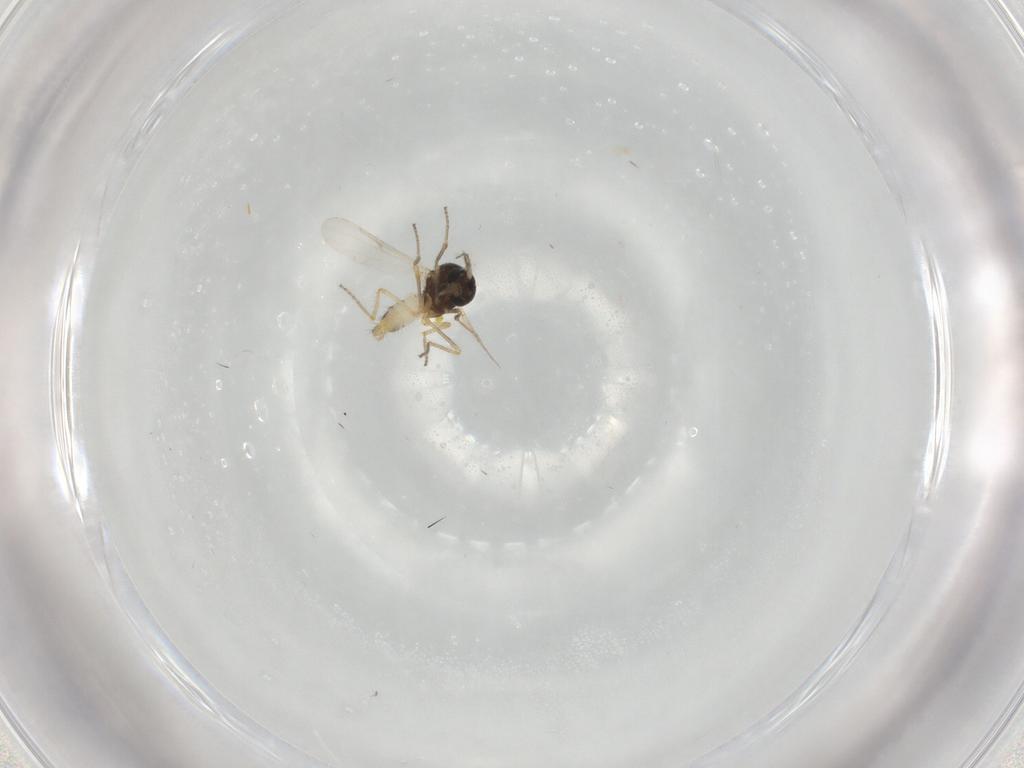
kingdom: Animalia
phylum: Arthropoda
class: Insecta
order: Diptera
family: Ceratopogonidae
